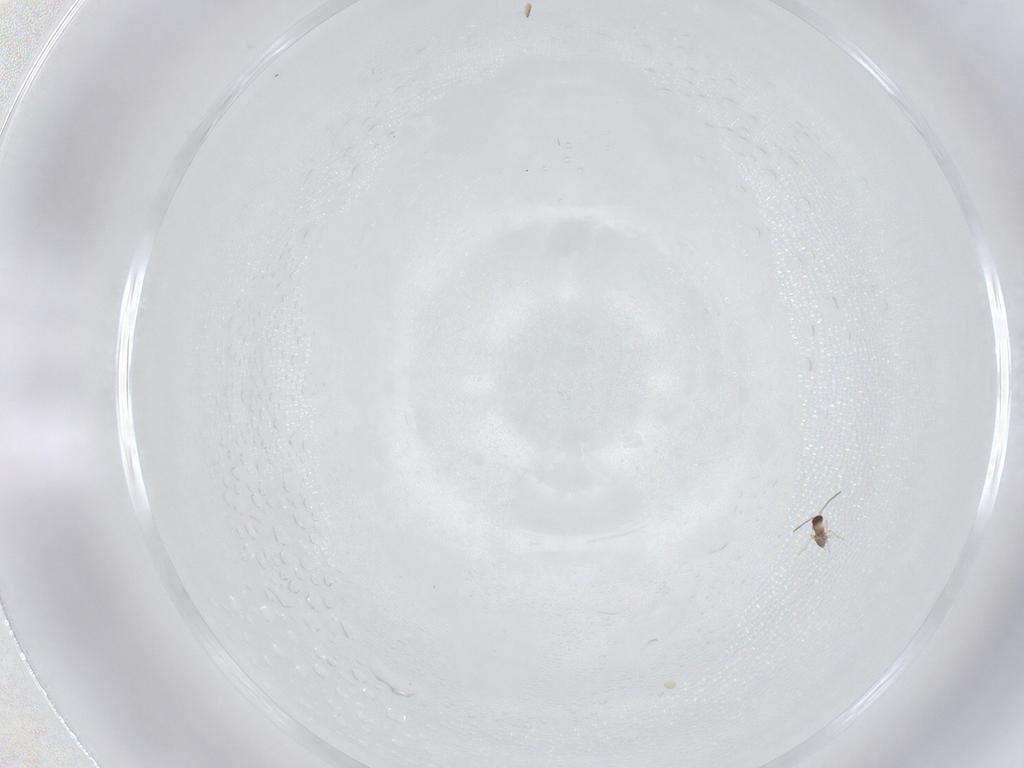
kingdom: Animalia
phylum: Arthropoda
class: Insecta
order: Hymenoptera
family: Mymaridae
